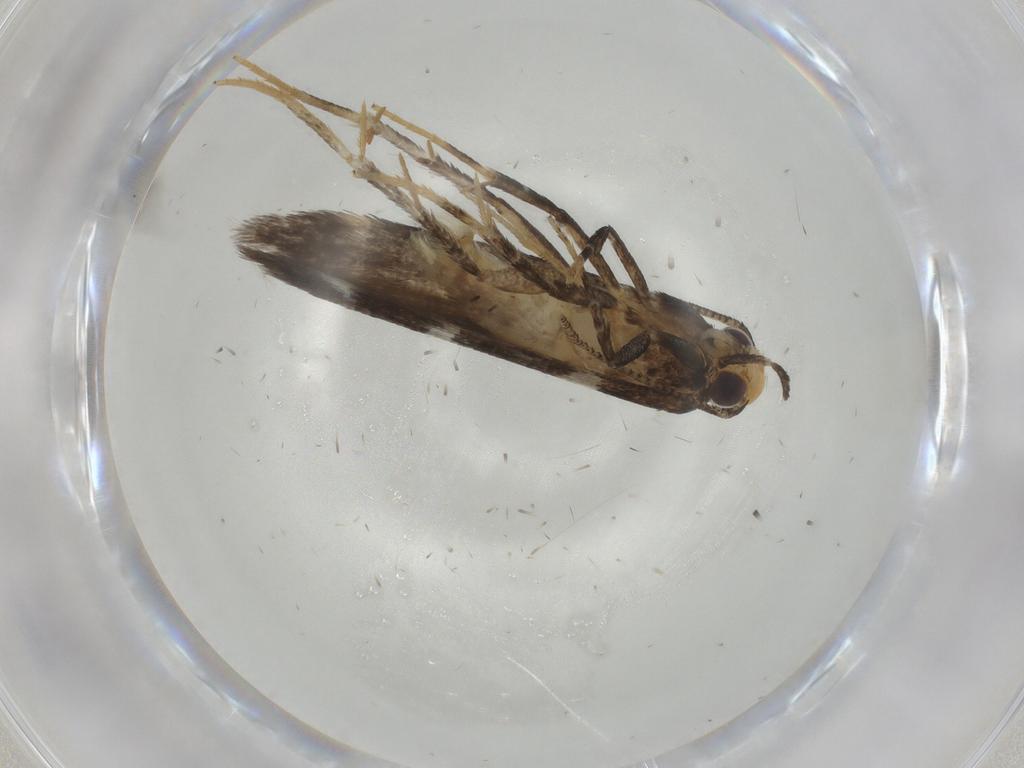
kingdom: Animalia
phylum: Arthropoda
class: Insecta
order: Lepidoptera
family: Cosmopterigidae
